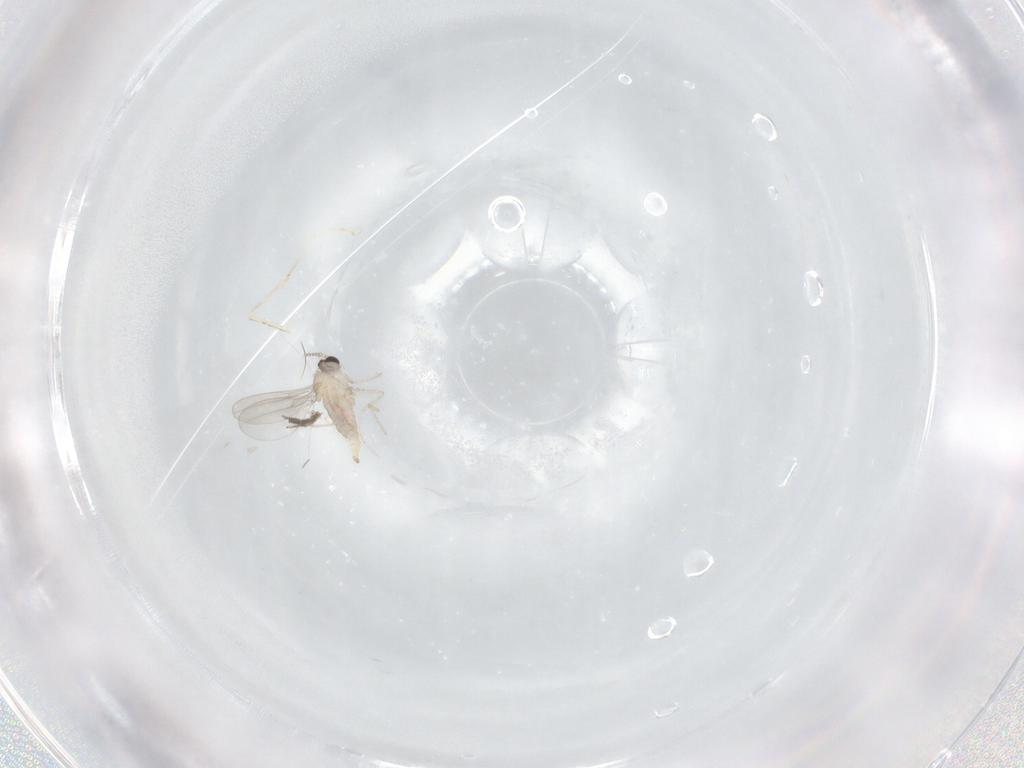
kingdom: Animalia
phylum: Arthropoda
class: Insecta
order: Diptera
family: Cecidomyiidae
